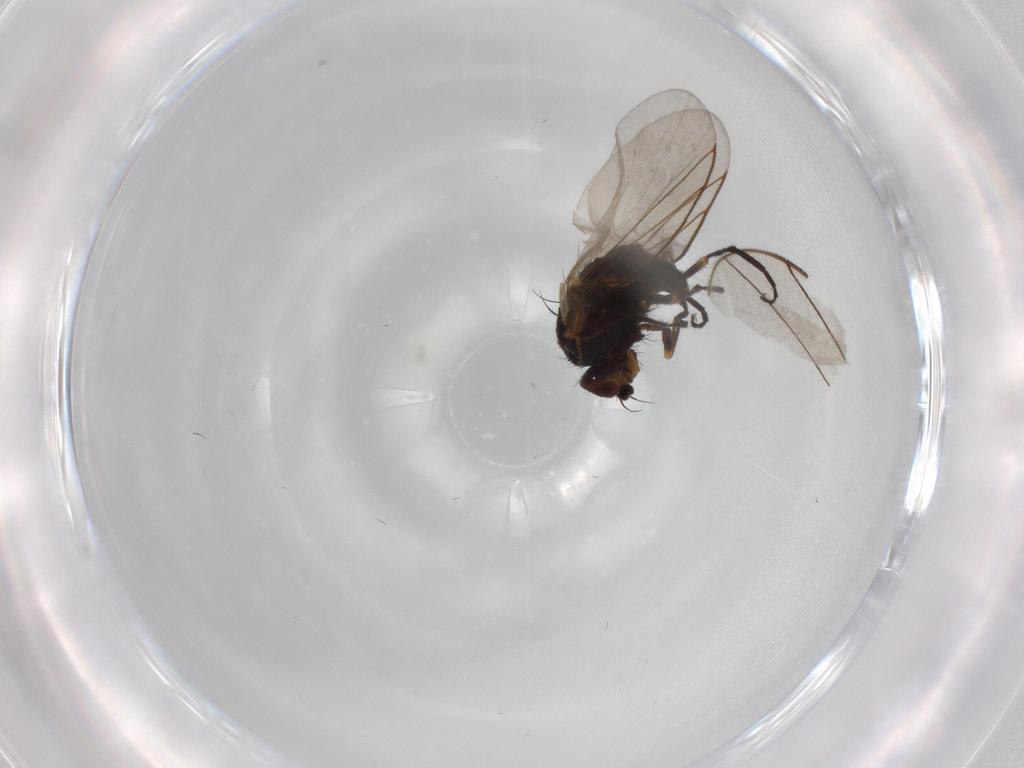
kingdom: Animalia
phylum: Arthropoda
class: Insecta
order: Diptera
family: Agromyzidae
